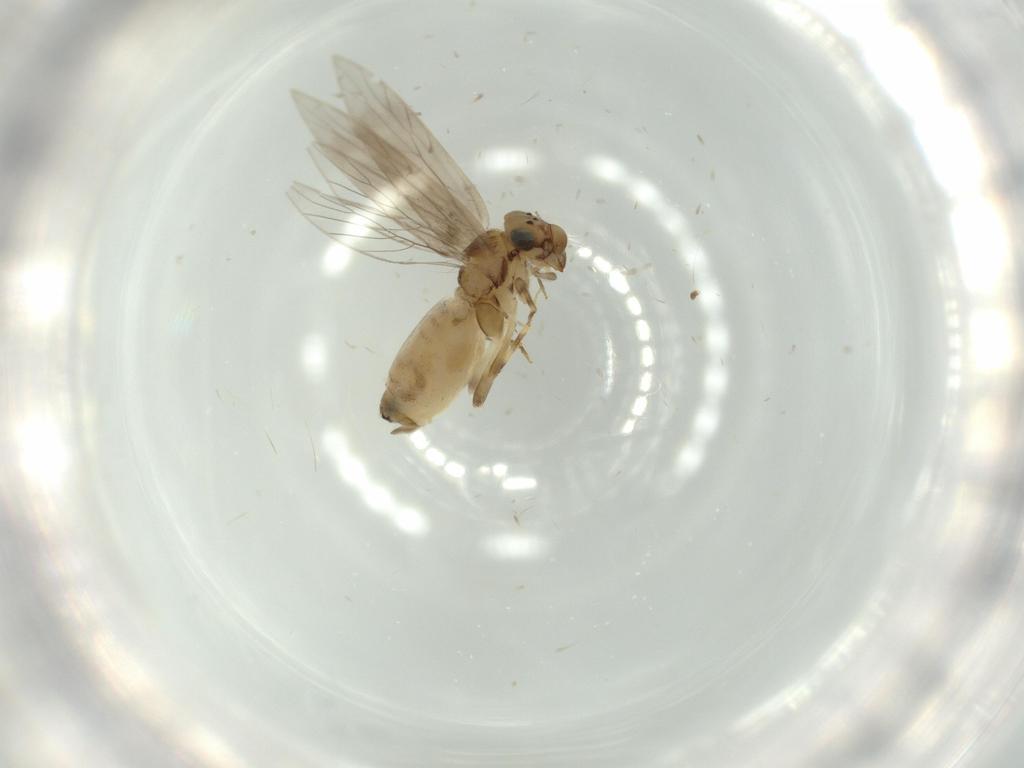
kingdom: Animalia
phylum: Arthropoda
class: Insecta
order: Psocodea
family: Lepidopsocidae
